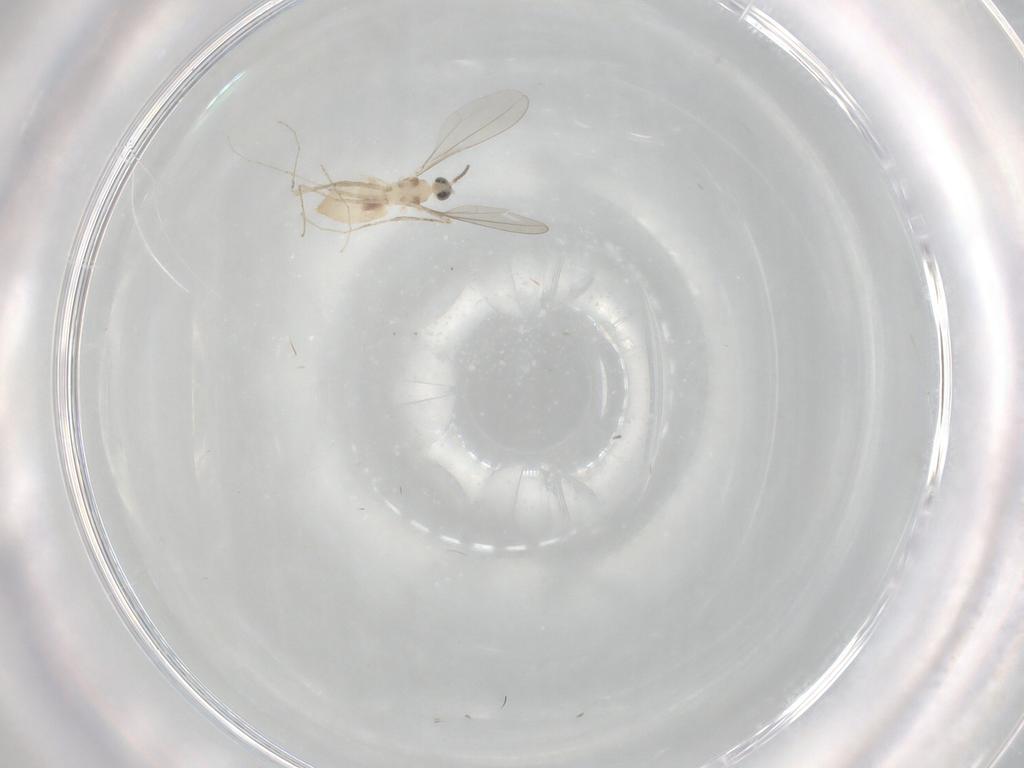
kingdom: Animalia
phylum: Arthropoda
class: Insecta
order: Diptera
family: Cecidomyiidae
